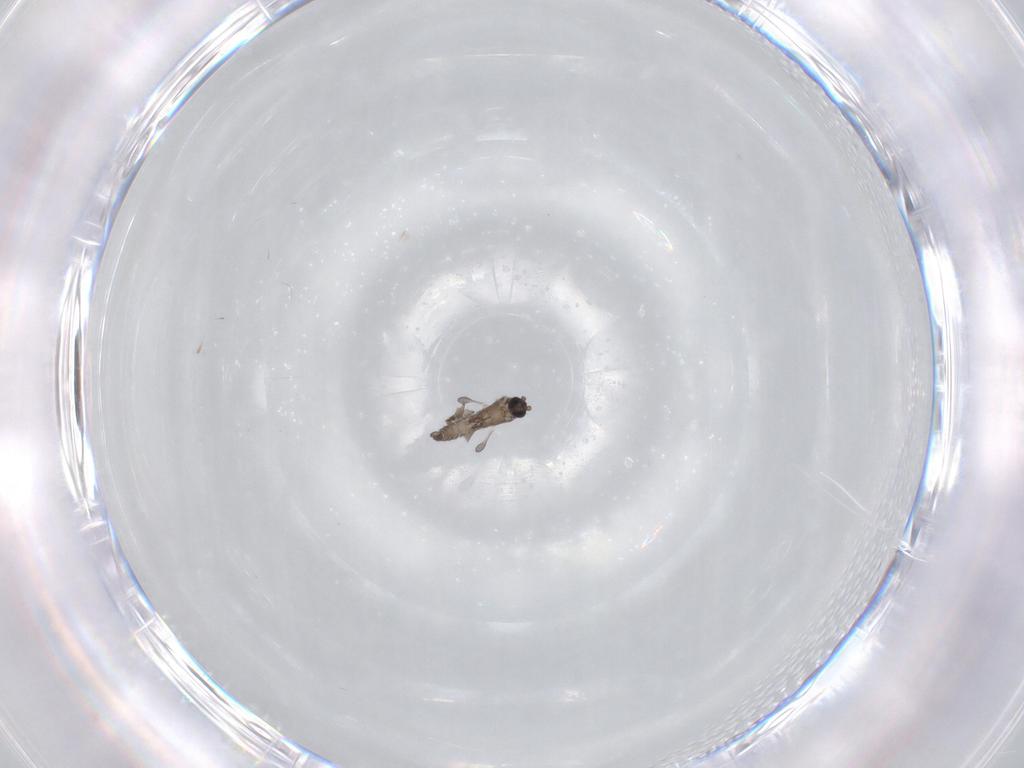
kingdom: Animalia
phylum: Arthropoda
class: Insecta
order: Diptera
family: Sciaridae
